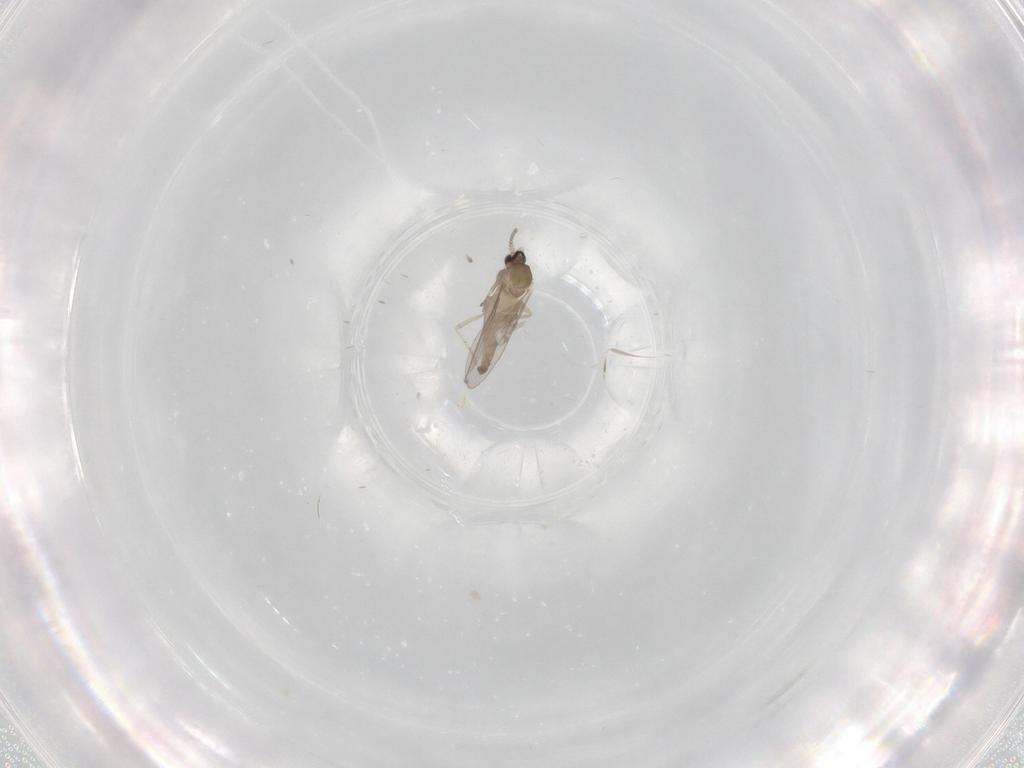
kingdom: Animalia
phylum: Arthropoda
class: Insecta
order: Diptera
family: Cecidomyiidae
